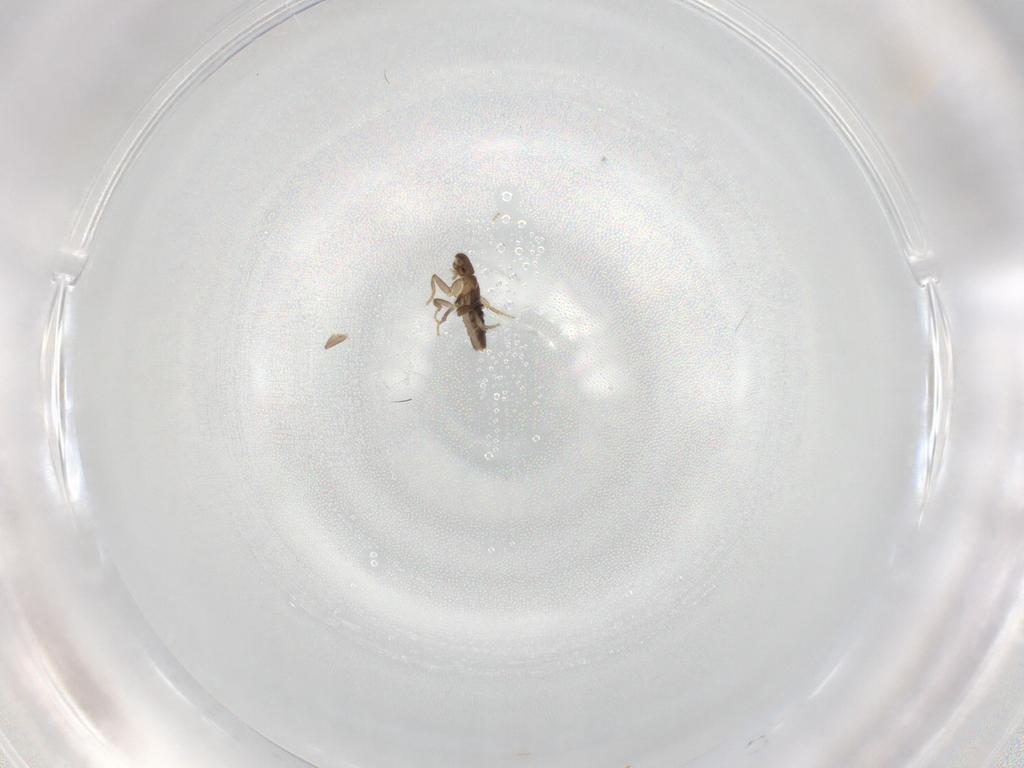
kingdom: Animalia
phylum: Arthropoda
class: Insecta
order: Diptera
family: Phoridae
